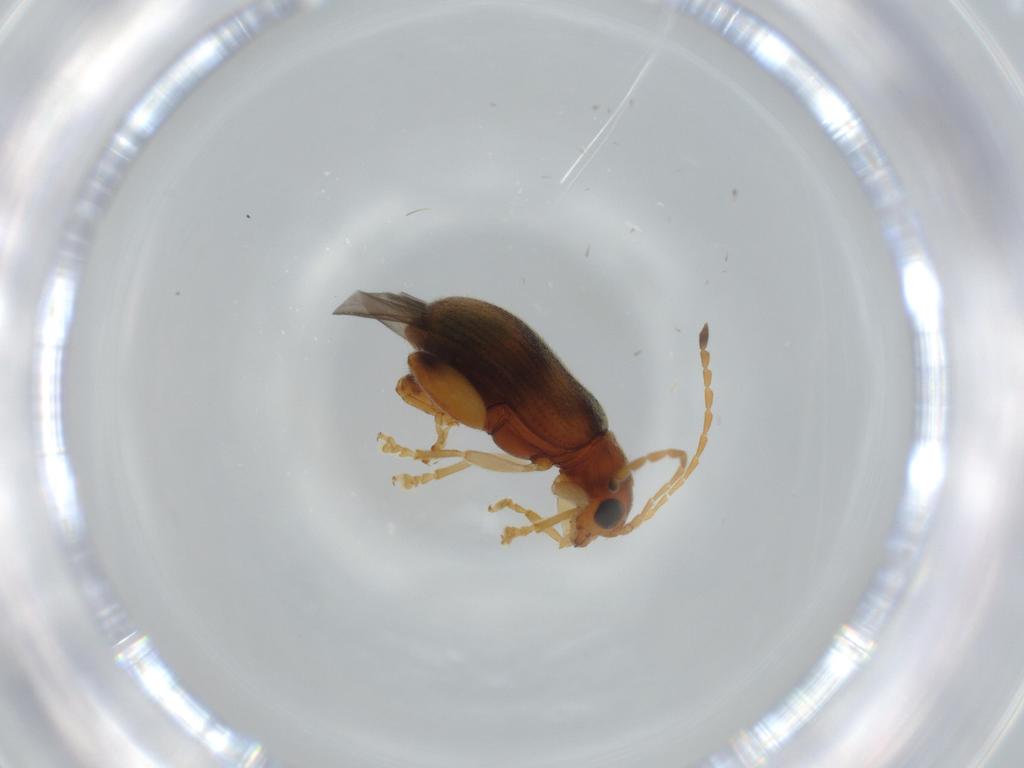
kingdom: Animalia
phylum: Arthropoda
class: Insecta
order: Coleoptera
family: Chrysomelidae
